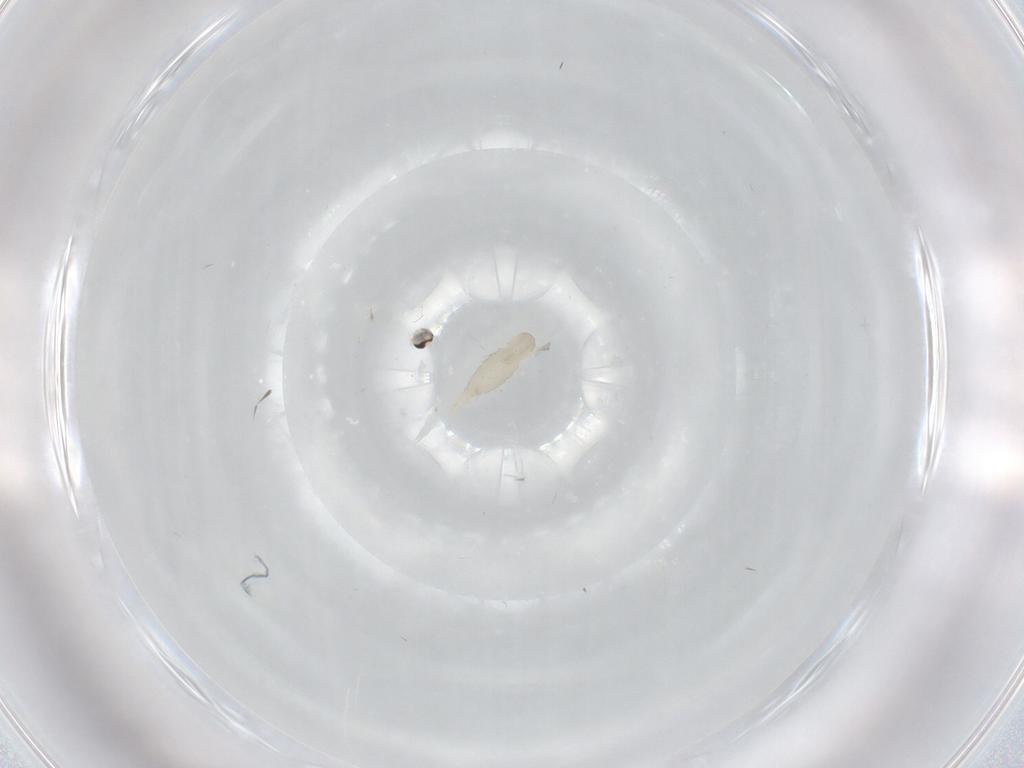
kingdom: Animalia
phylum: Arthropoda
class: Insecta
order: Diptera
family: Cecidomyiidae
